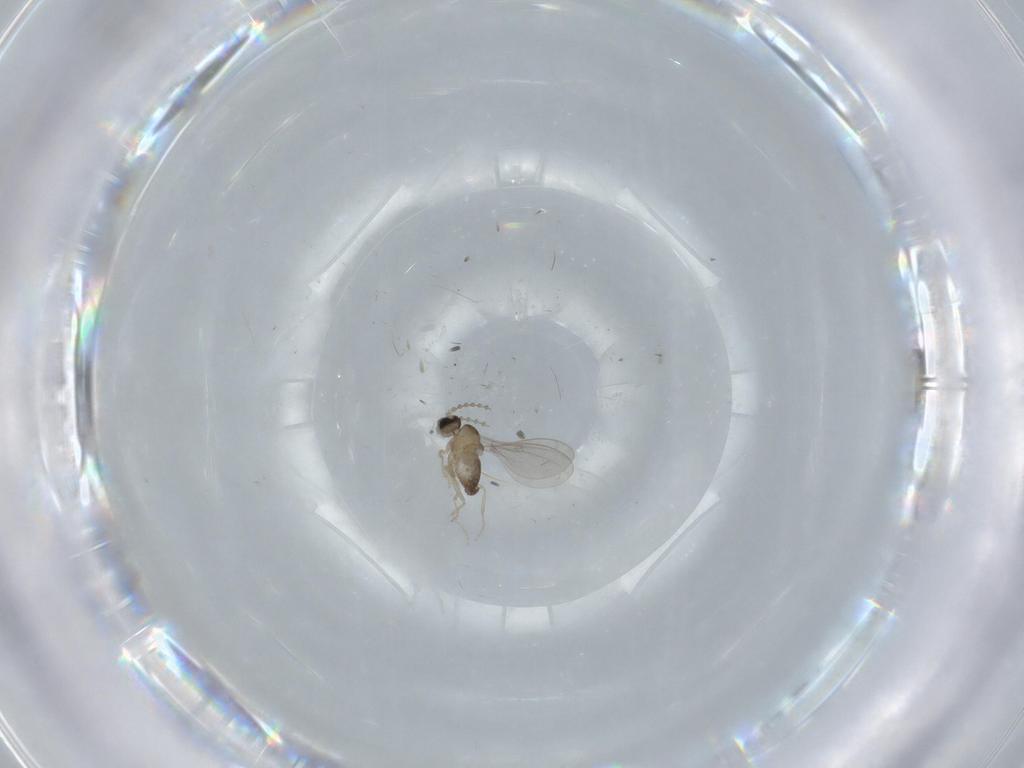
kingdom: Animalia
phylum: Arthropoda
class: Insecta
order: Diptera
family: Cecidomyiidae
